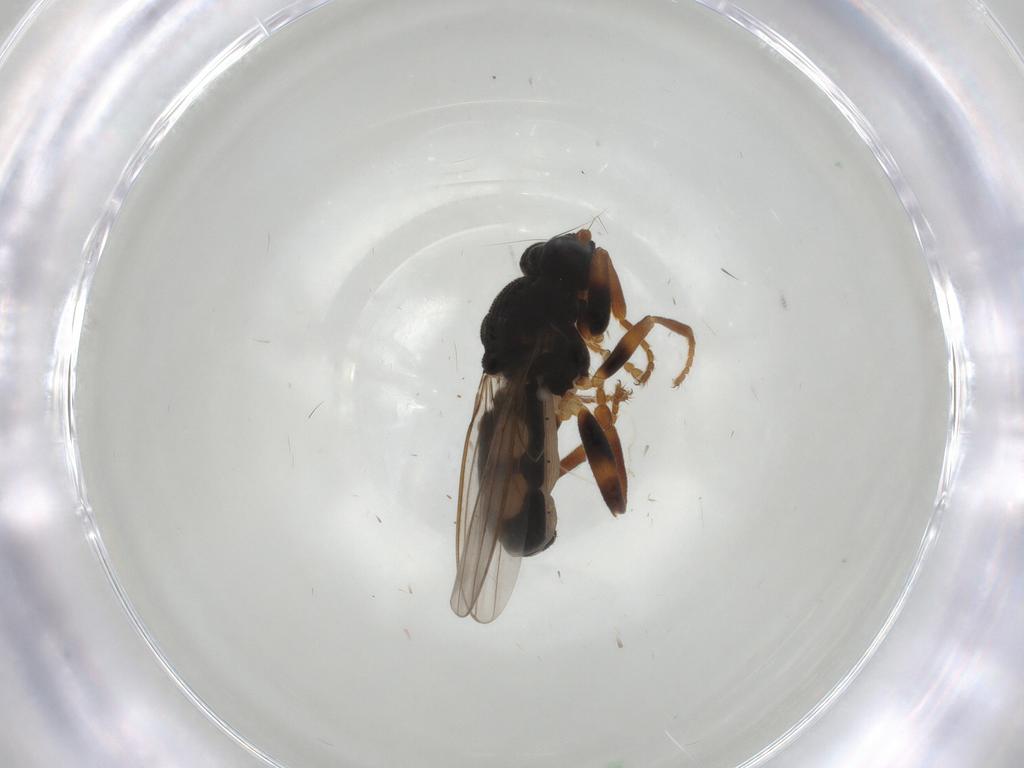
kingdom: Animalia
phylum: Arthropoda
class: Insecta
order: Diptera
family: Sphaeroceridae
